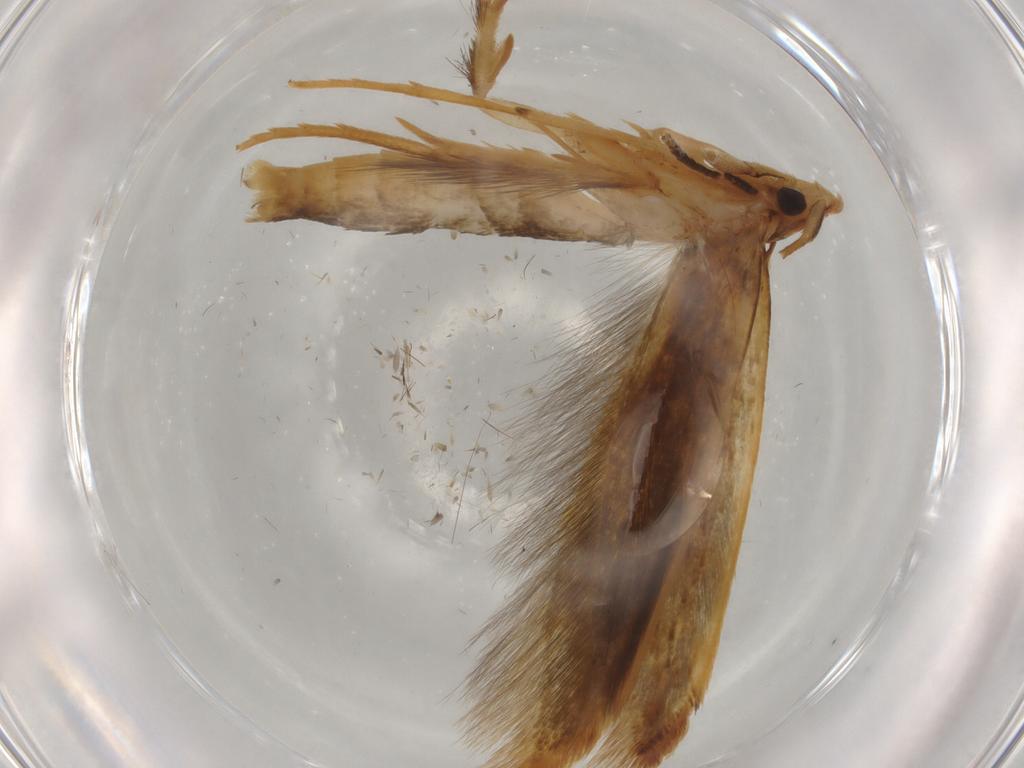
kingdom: Animalia
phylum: Arthropoda
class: Insecta
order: Lepidoptera
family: Tineidae
